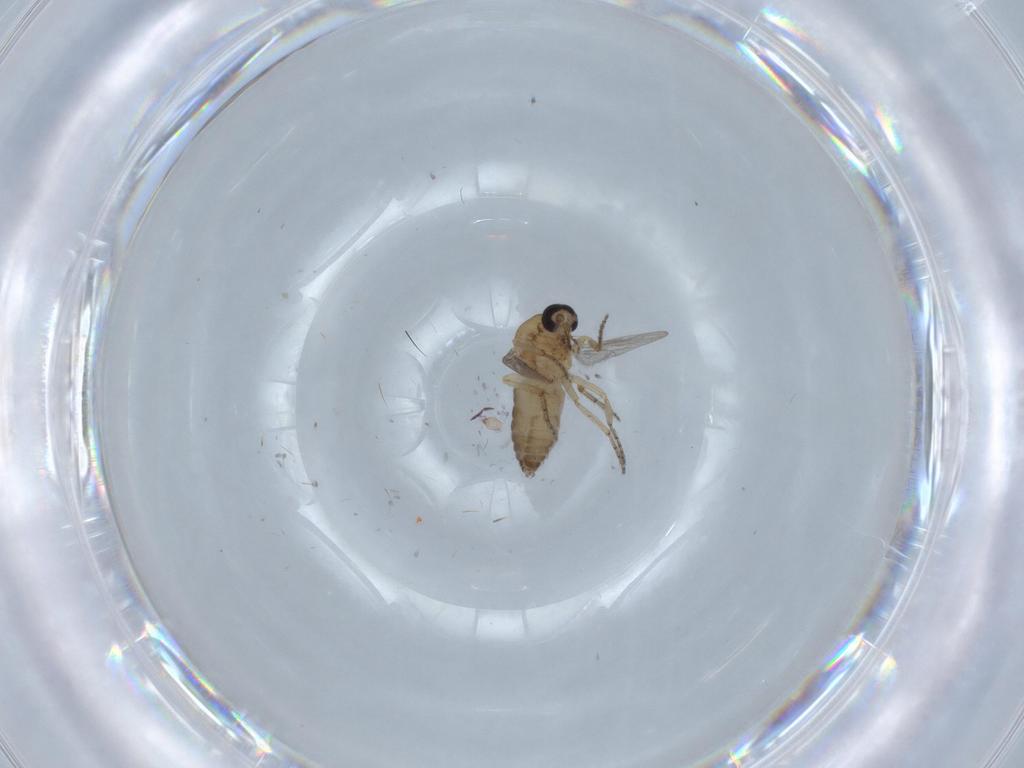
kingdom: Animalia
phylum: Arthropoda
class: Insecta
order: Diptera
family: Ceratopogonidae
